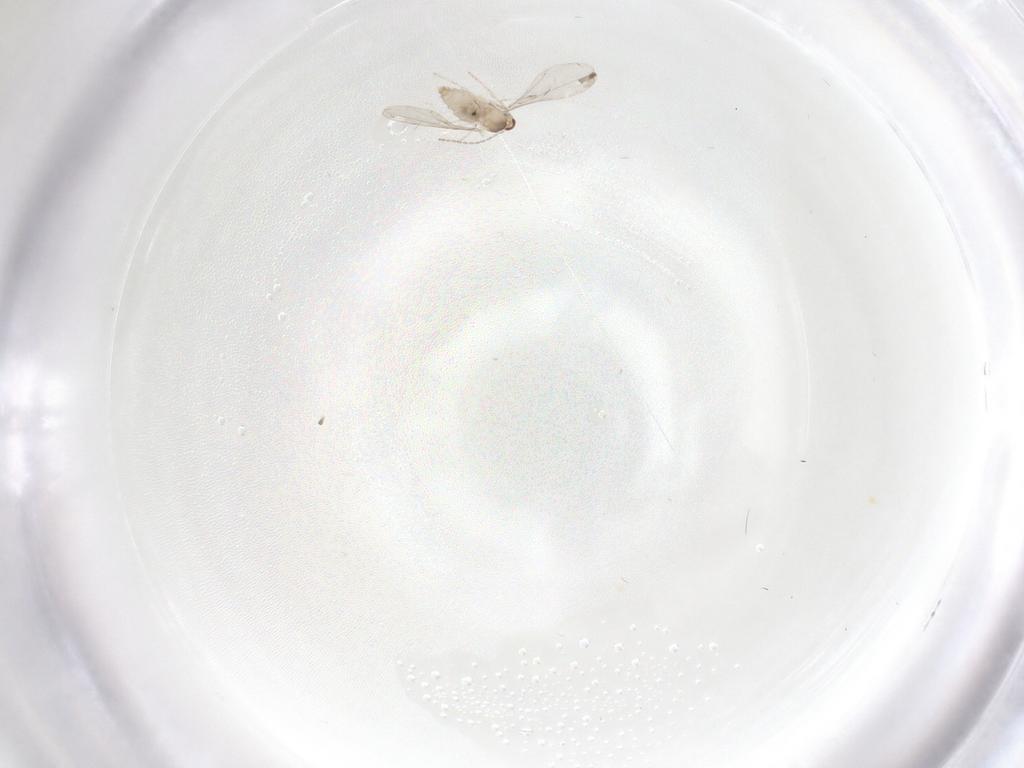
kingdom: Animalia
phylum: Arthropoda
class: Insecta
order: Diptera
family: Cecidomyiidae
